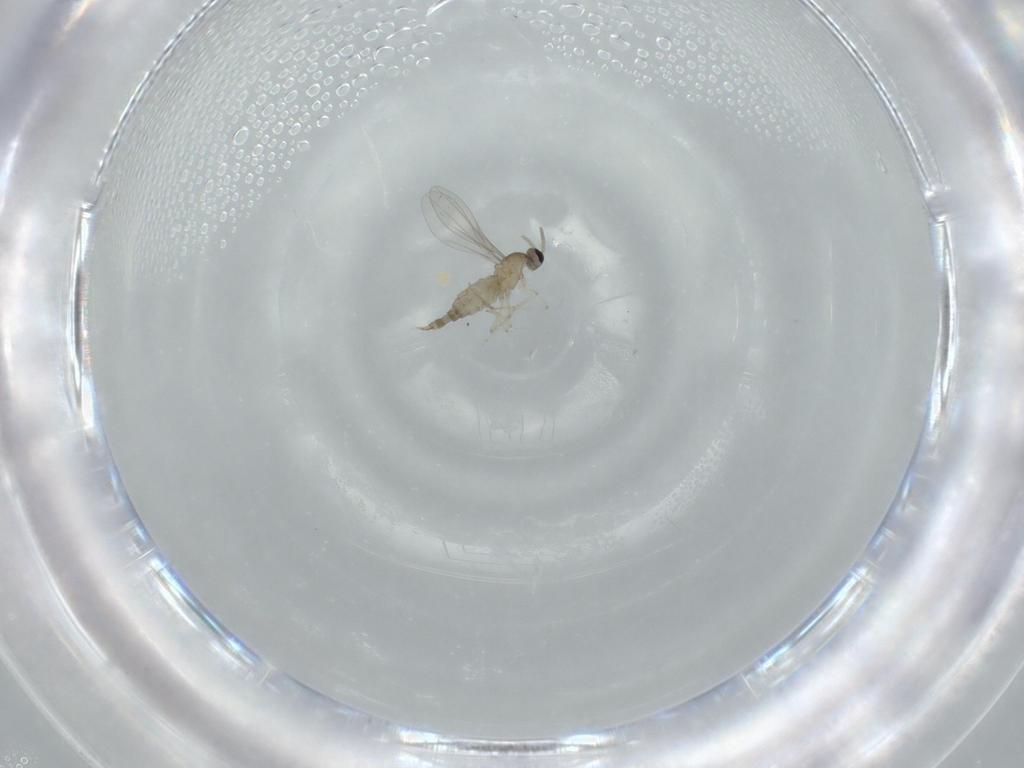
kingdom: Animalia
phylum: Arthropoda
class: Insecta
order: Diptera
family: Cecidomyiidae
